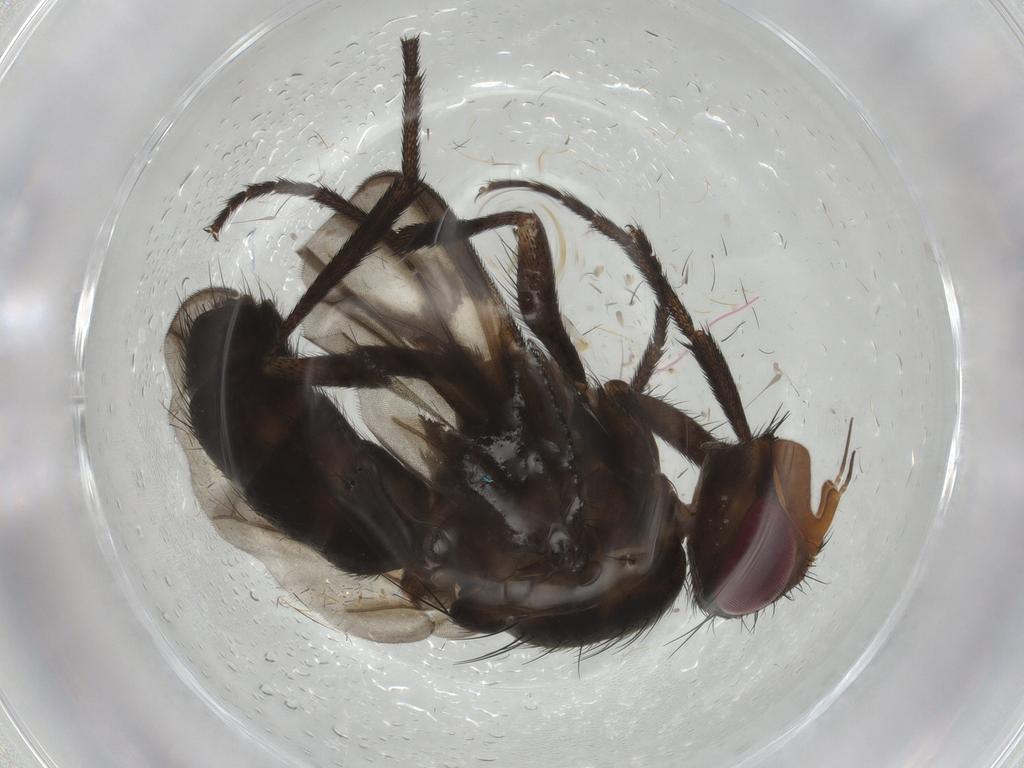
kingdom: Animalia
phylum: Arthropoda
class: Insecta
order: Diptera
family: Calliphoridae
